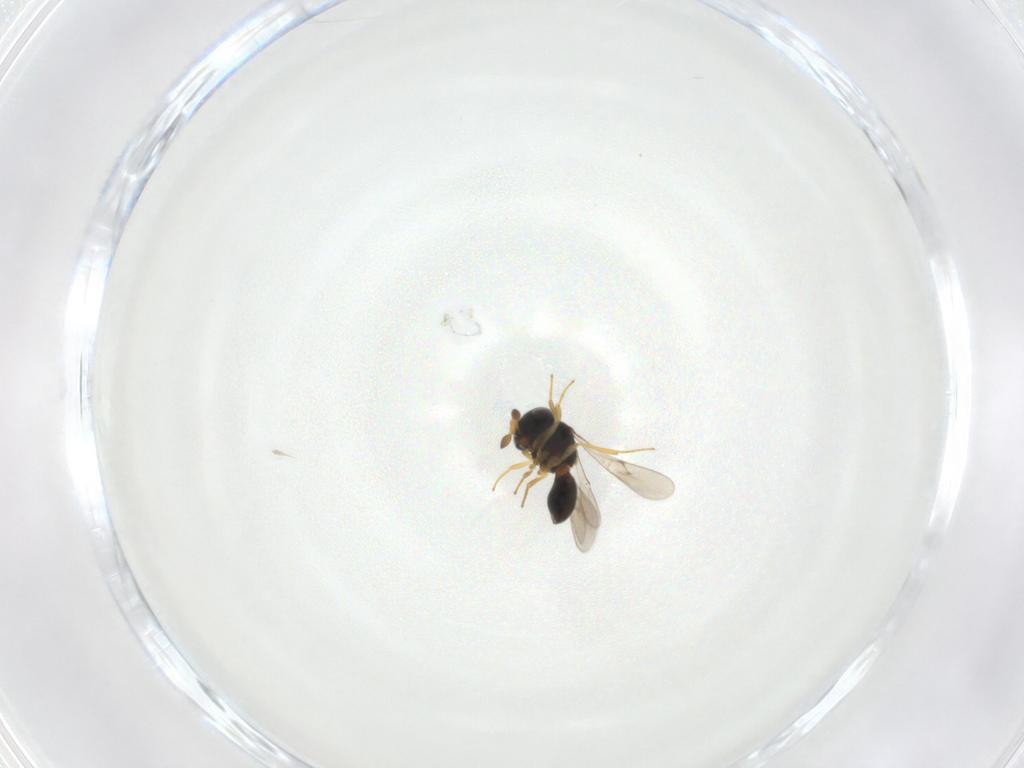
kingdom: Animalia
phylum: Arthropoda
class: Insecta
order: Hymenoptera
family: Scelionidae
